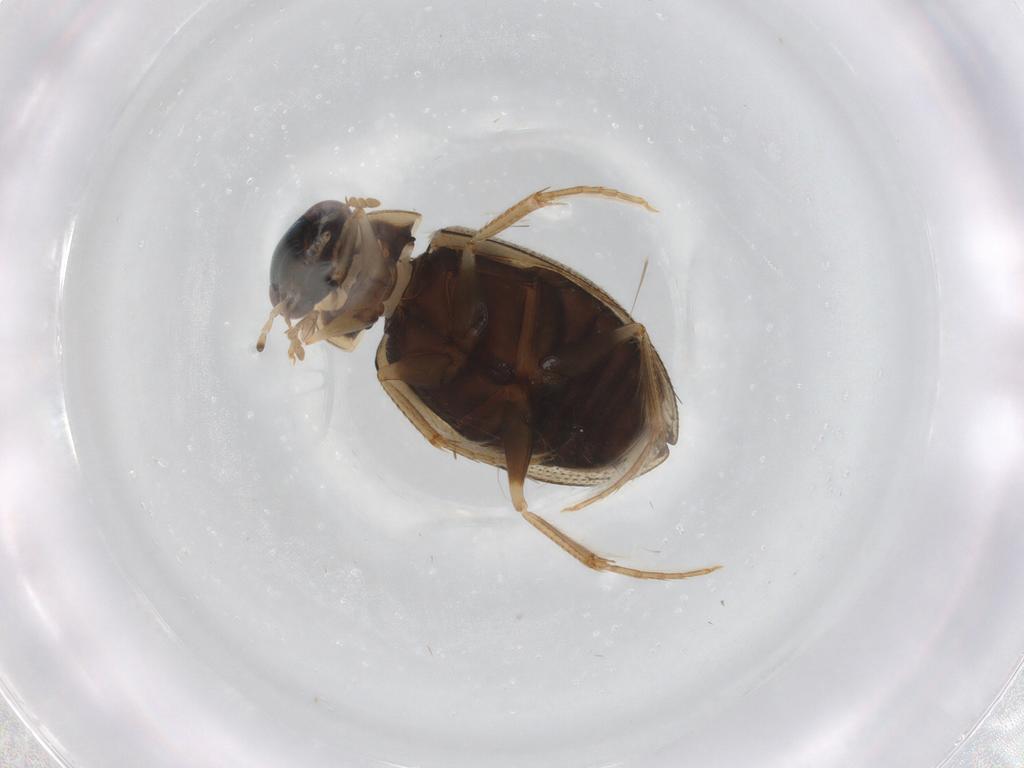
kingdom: Animalia
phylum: Arthropoda
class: Insecta
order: Coleoptera
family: Hydrophilidae
